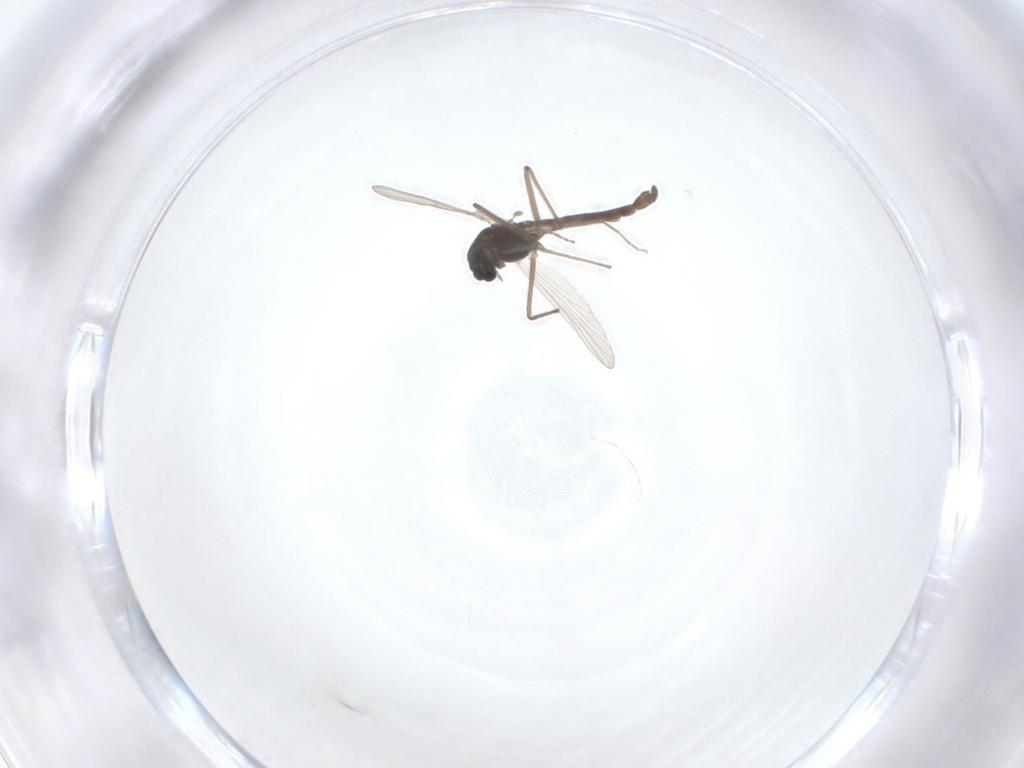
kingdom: Animalia
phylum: Arthropoda
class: Insecta
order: Diptera
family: Chironomidae
